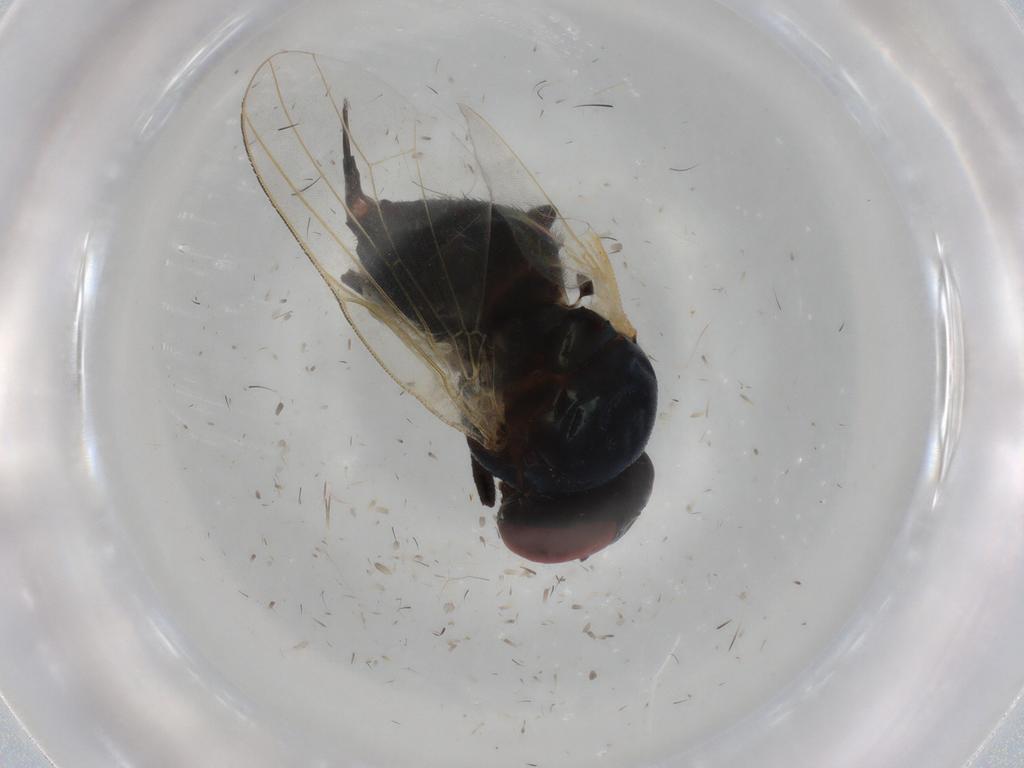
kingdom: Animalia
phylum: Arthropoda
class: Insecta
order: Diptera
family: Lonchaeidae
